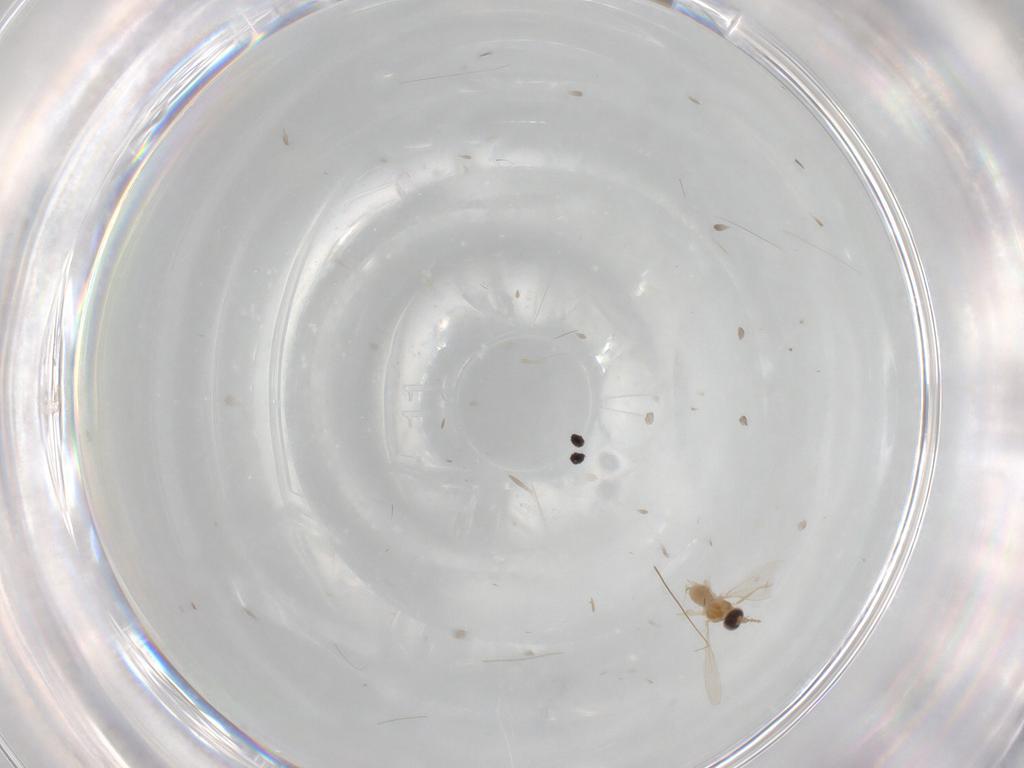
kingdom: Animalia
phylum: Arthropoda
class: Insecta
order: Diptera
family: Cecidomyiidae
